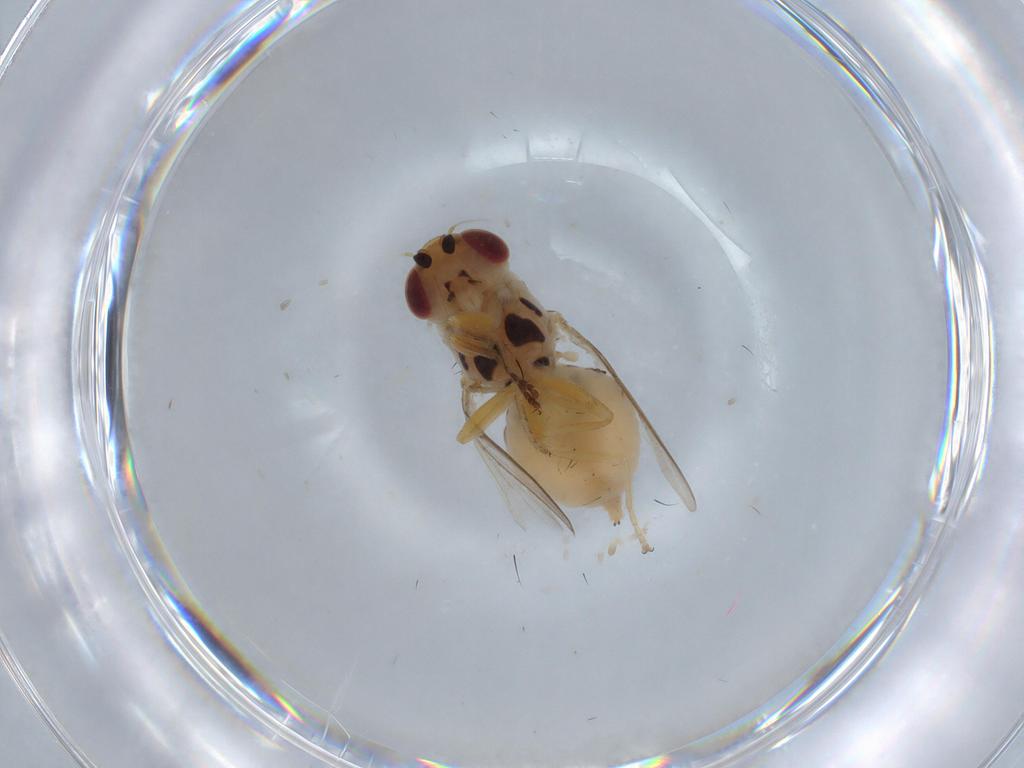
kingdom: Animalia
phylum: Arthropoda
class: Insecta
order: Diptera
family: Chloropidae
